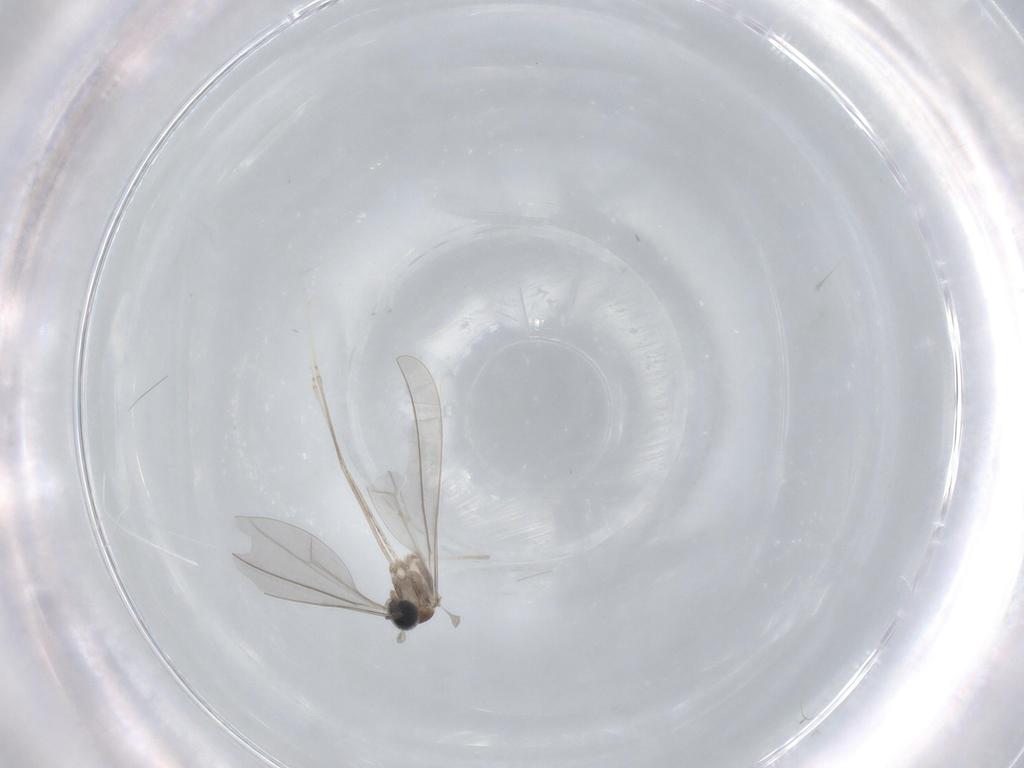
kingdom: Animalia
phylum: Arthropoda
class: Insecta
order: Diptera
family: Cecidomyiidae
